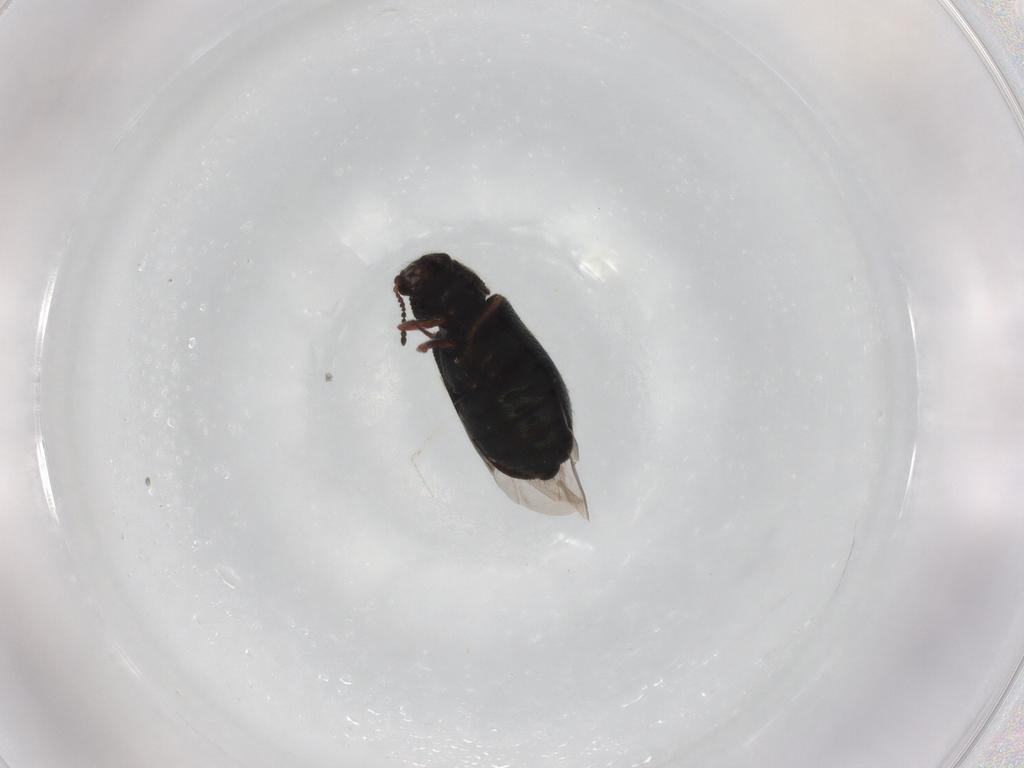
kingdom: Animalia
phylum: Arthropoda
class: Insecta
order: Coleoptera
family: Melyridae
